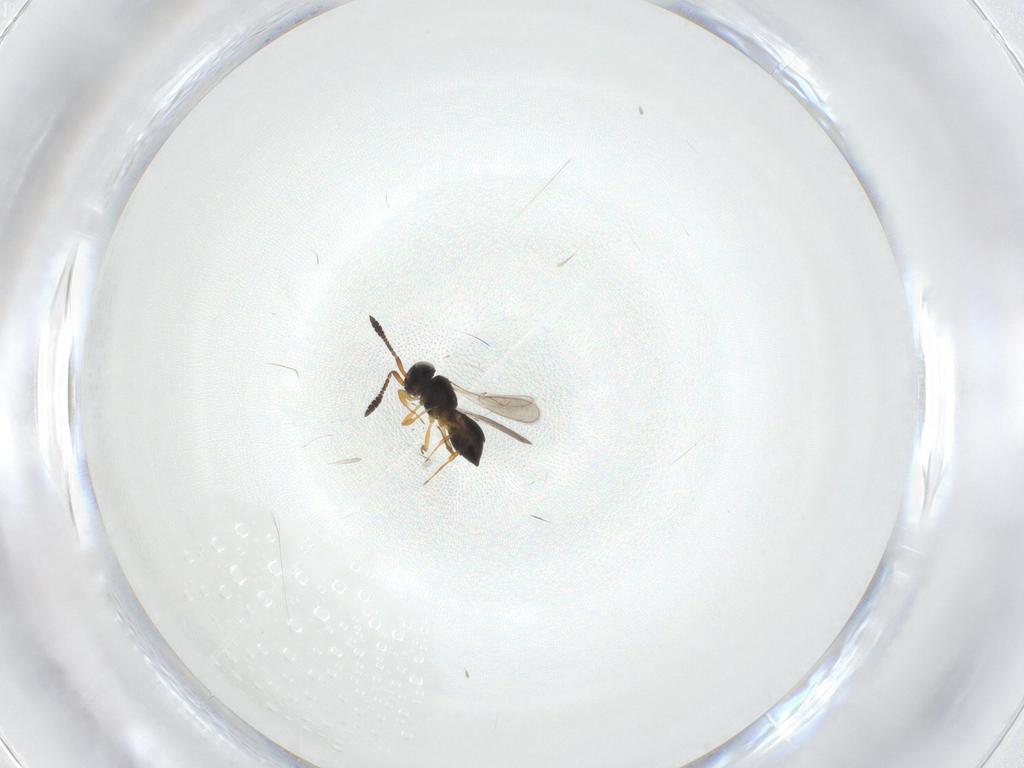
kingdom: Animalia
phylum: Arthropoda
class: Insecta
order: Hymenoptera
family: Scelionidae
